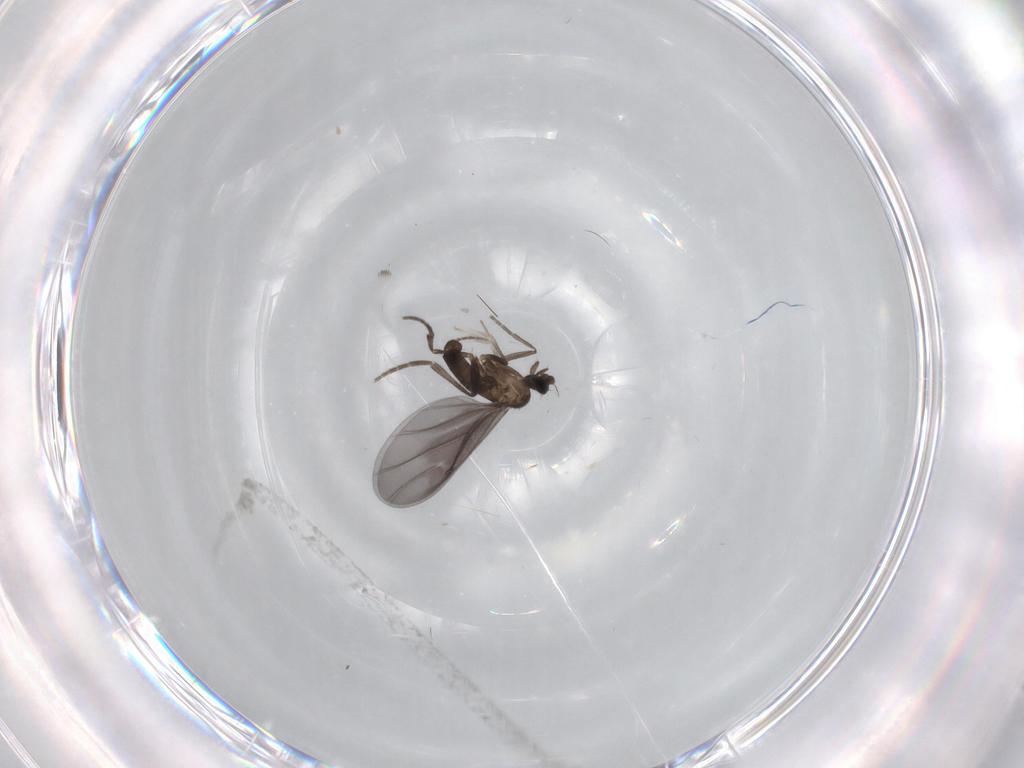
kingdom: Animalia
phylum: Arthropoda
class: Insecta
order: Diptera
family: Phoridae
